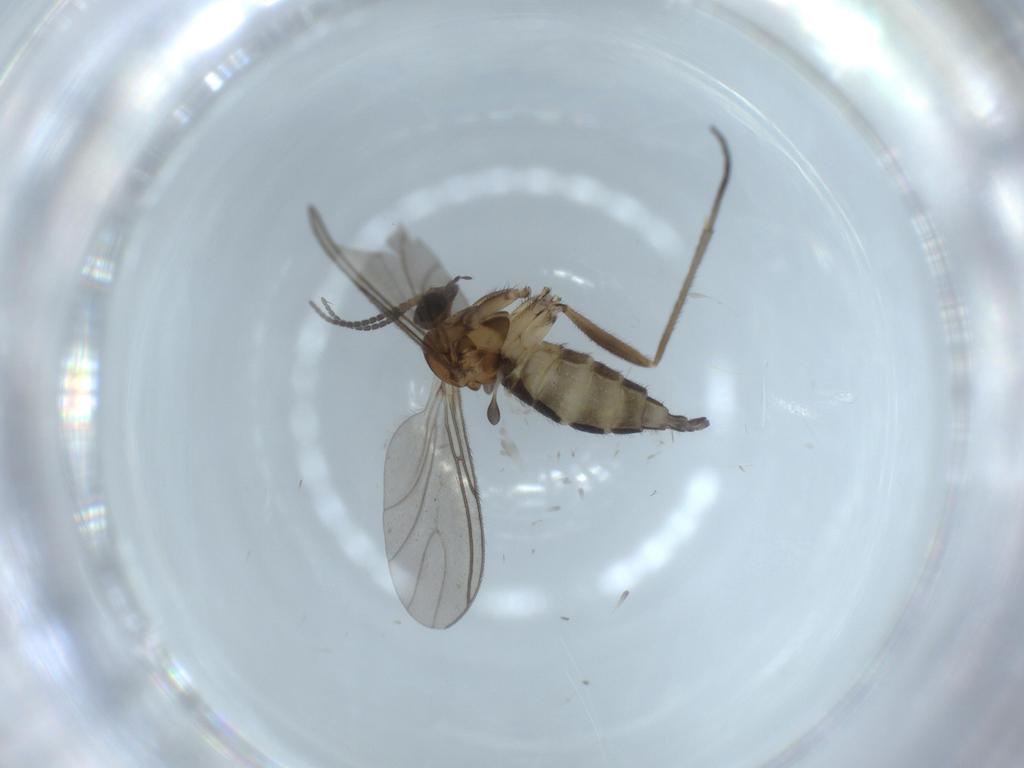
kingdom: Animalia
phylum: Arthropoda
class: Insecta
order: Diptera
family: Sciaridae
